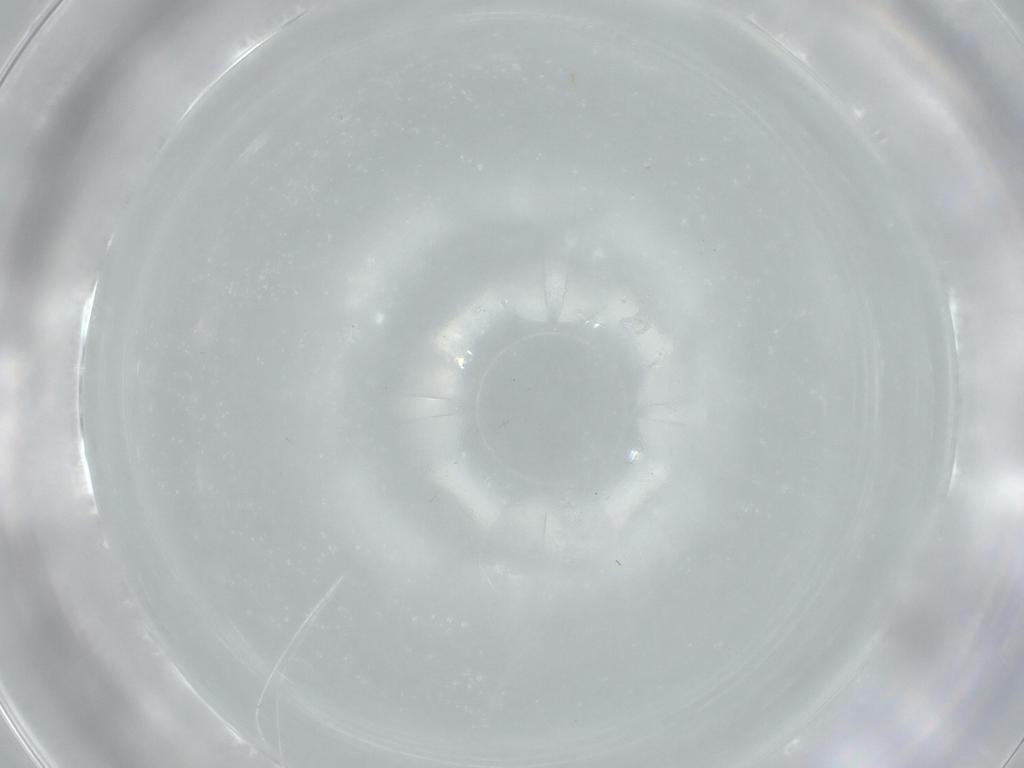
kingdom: Animalia
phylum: Arthropoda
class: Insecta
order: Hymenoptera
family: Aphelinidae
